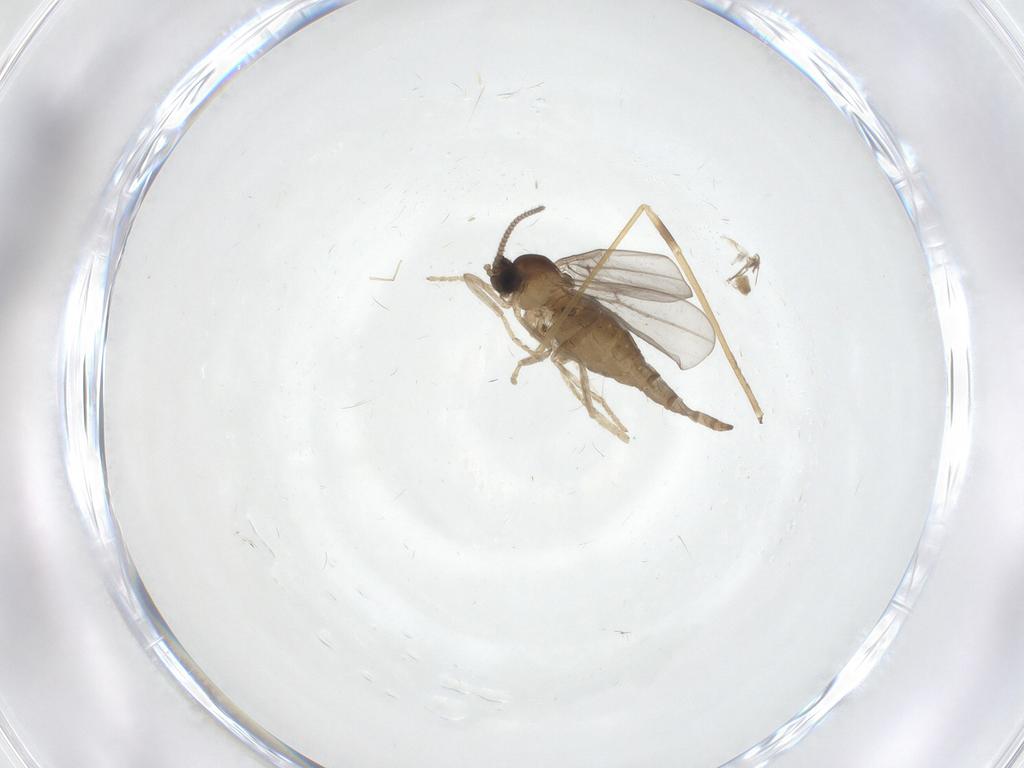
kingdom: Animalia
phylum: Arthropoda
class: Insecta
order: Diptera
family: Cecidomyiidae
